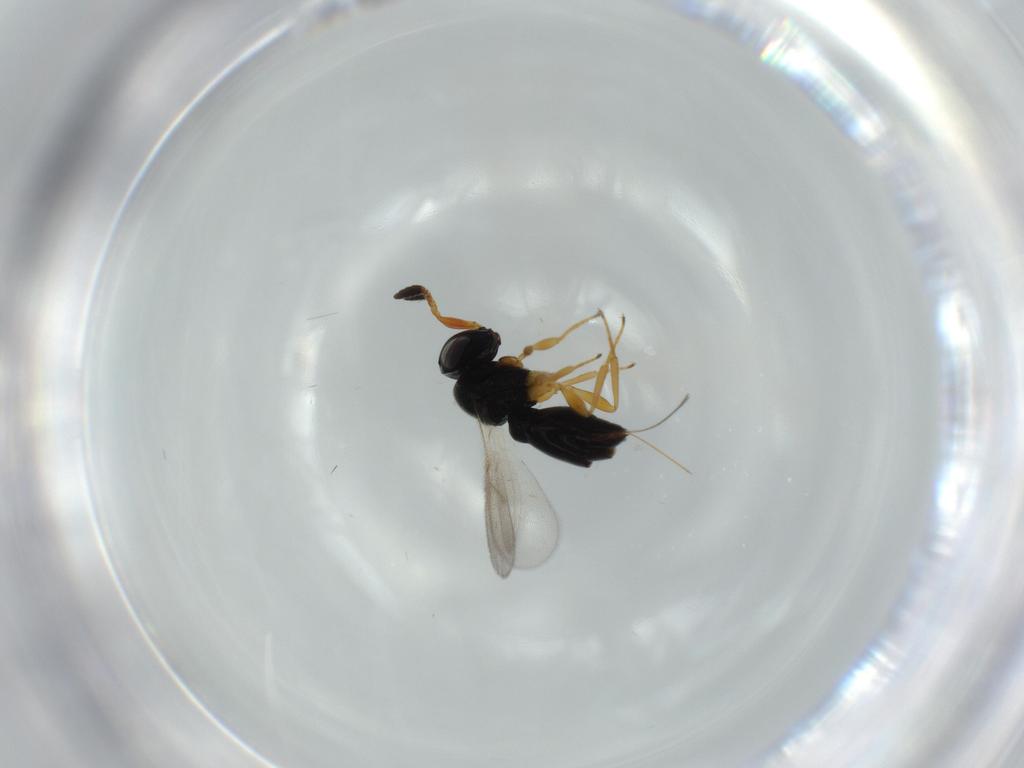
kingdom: Animalia
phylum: Arthropoda
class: Insecta
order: Hymenoptera
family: Scelionidae
